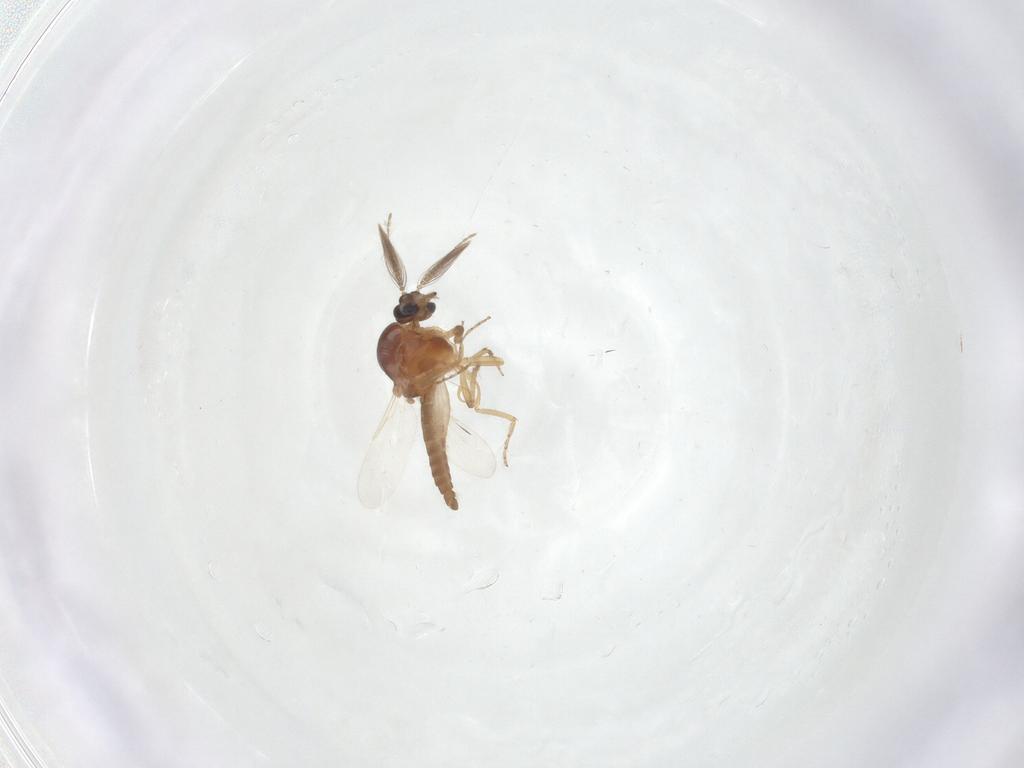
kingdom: Animalia
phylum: Arthropoda
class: Insecta
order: Diptera
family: Ceratopogonidae
